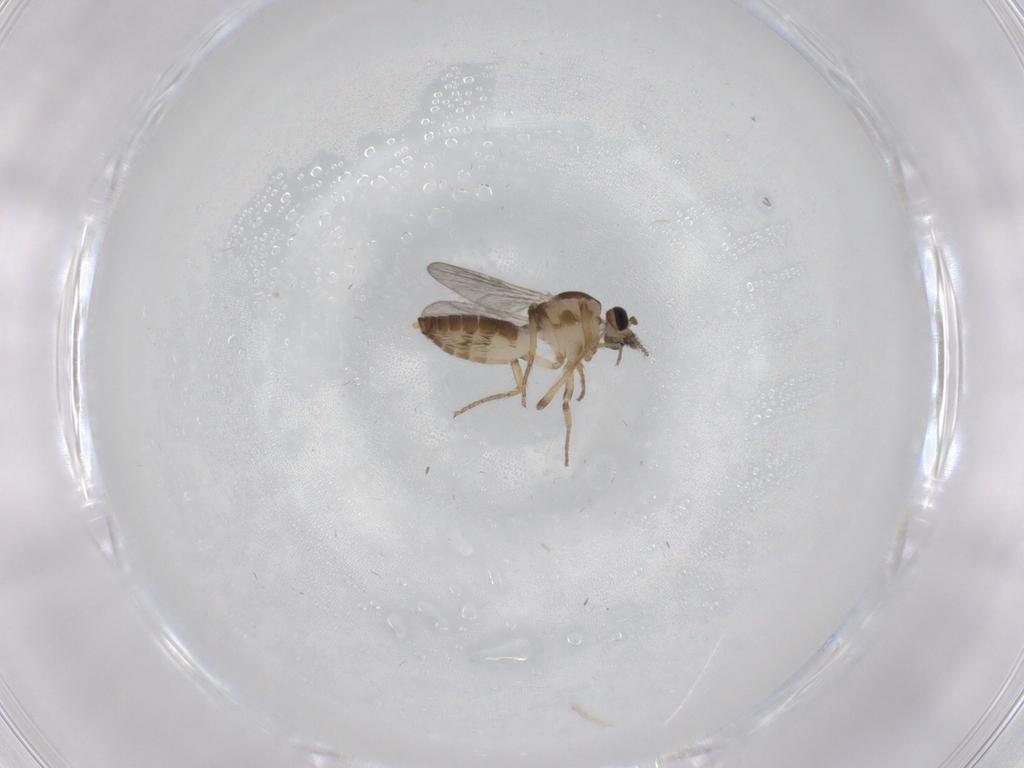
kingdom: Animalia
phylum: Arthropoda
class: Insecta
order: Diptera
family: Ceratopogonidae
